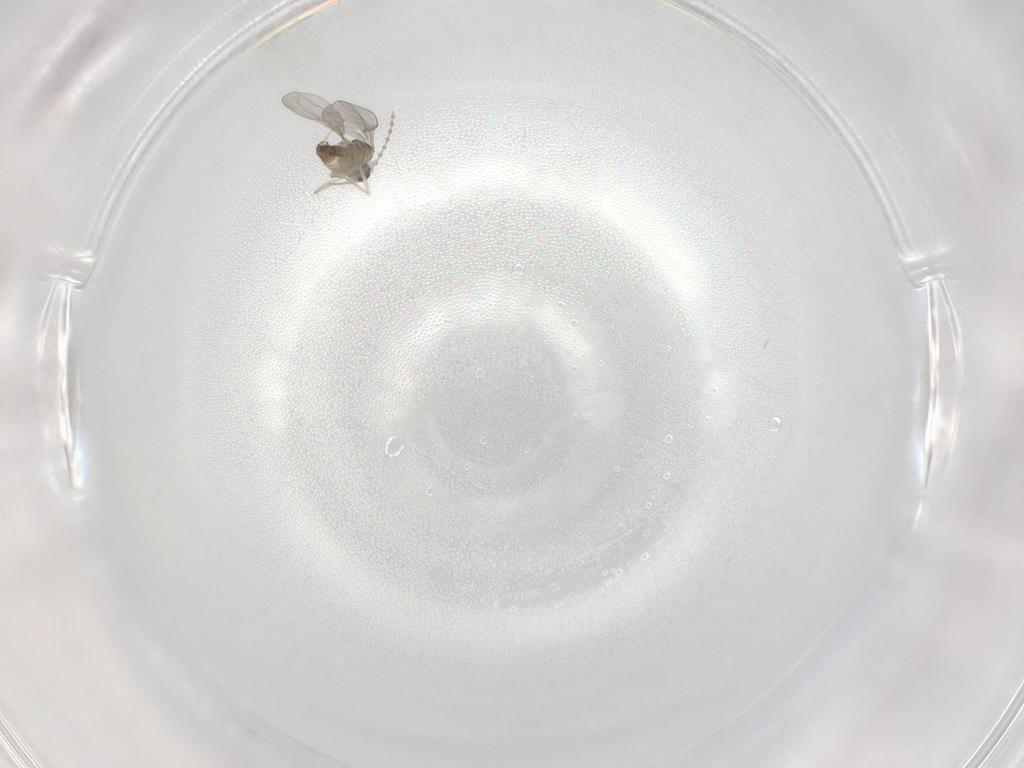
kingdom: Animalia
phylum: Arthropoda
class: Insecta
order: Diptera
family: Cecidomyiidae
